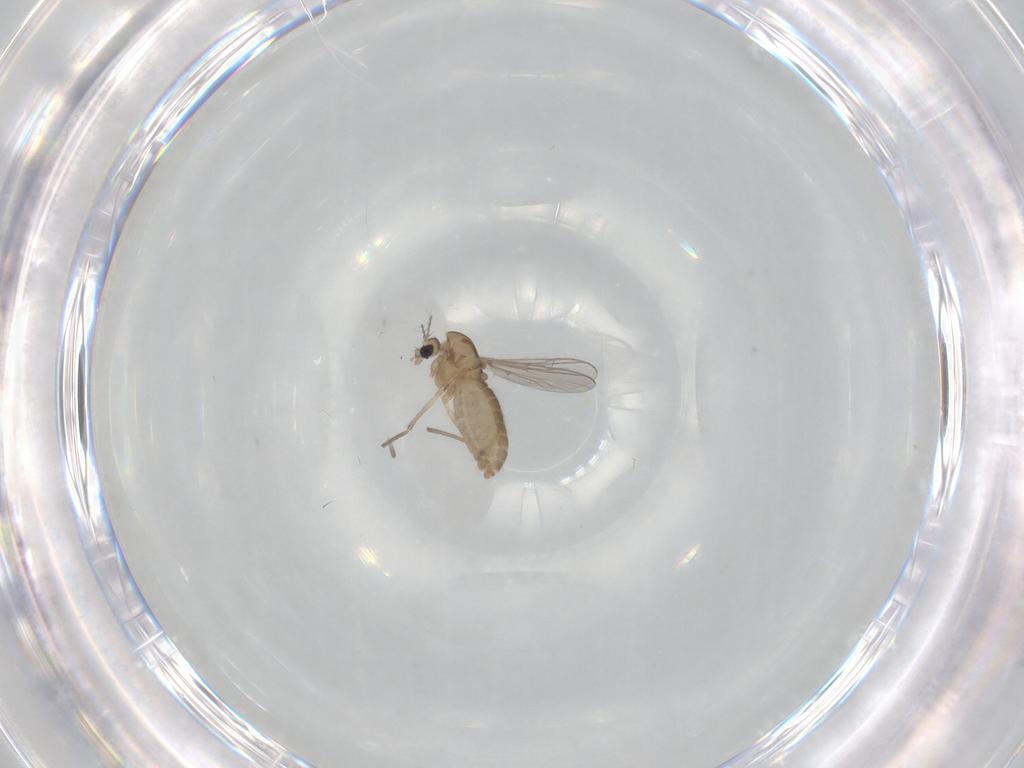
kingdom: Animalia
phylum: Arthropoda
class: Insecta
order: Diptera
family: Chironomidae
